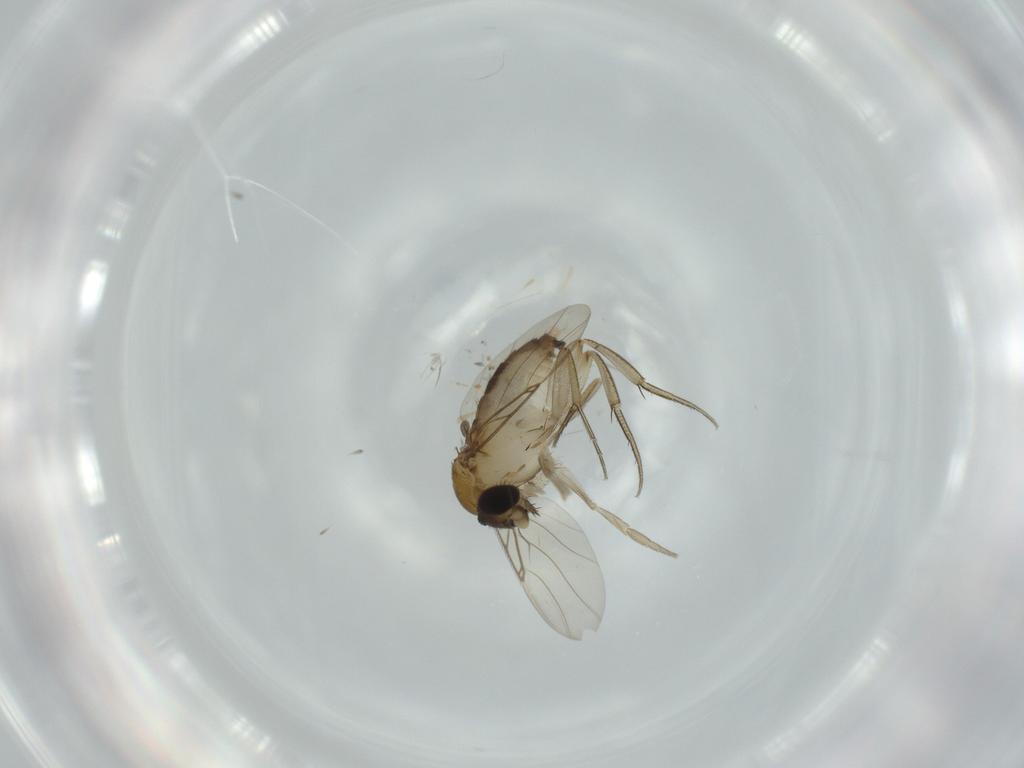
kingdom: Animalia
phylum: Arthropoda
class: Insecta
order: Diptera
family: Phoridae
